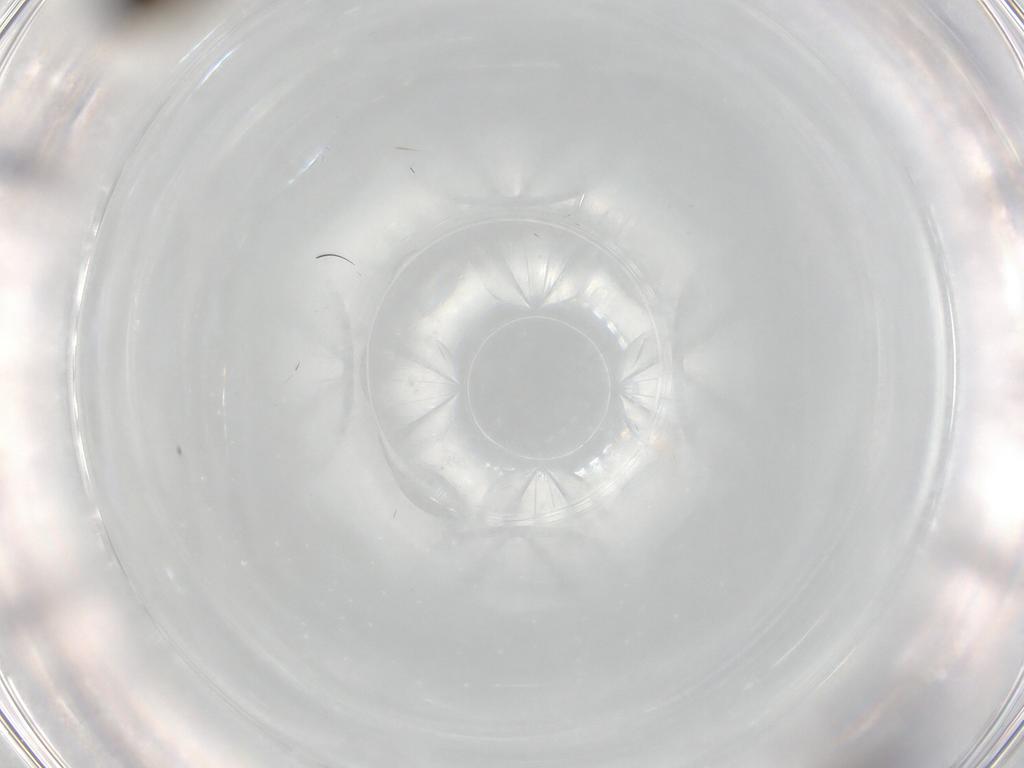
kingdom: Animalia
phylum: Arthropoda
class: Insecta
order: Diptera
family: Scatopsidae
